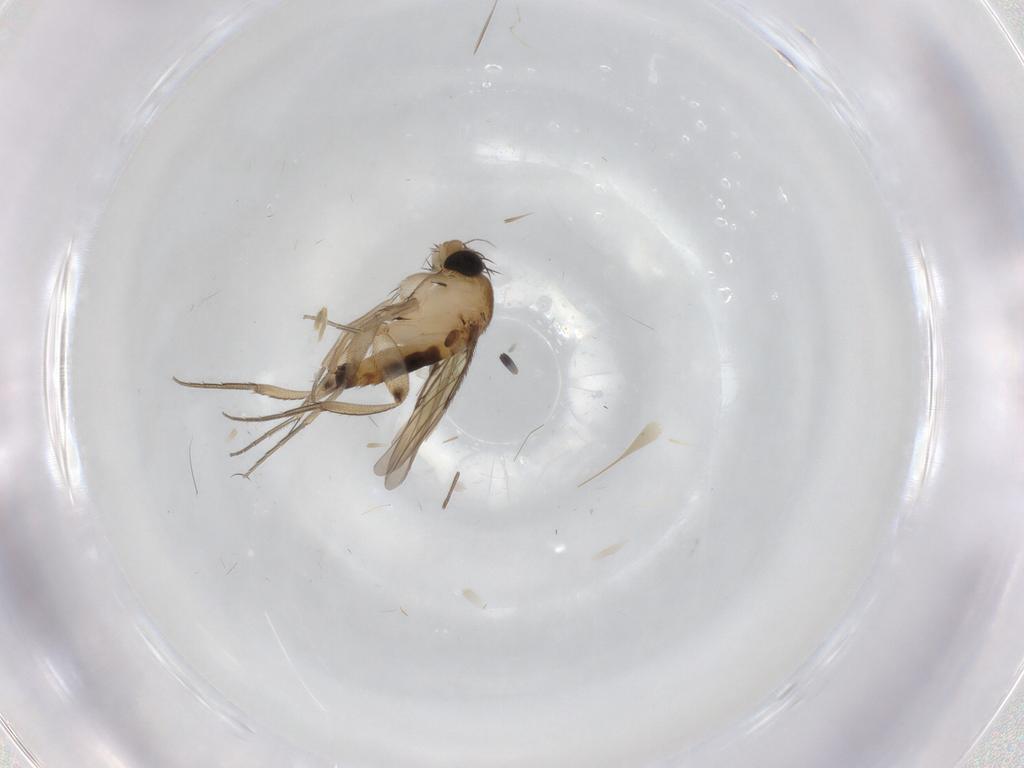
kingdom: Animalia
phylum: Arthropoda
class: Insecta
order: Diptera
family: Phoridae
